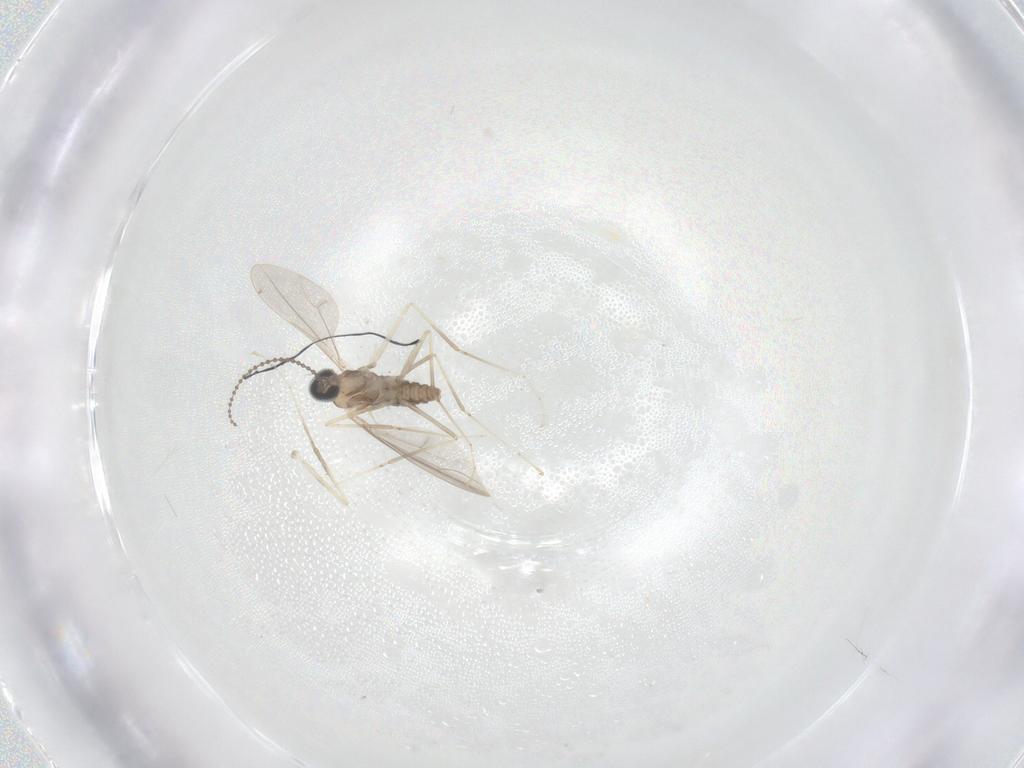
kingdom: Animalia
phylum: Arthropoda
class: Insecta
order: Diptera
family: Cecidomyiidae
